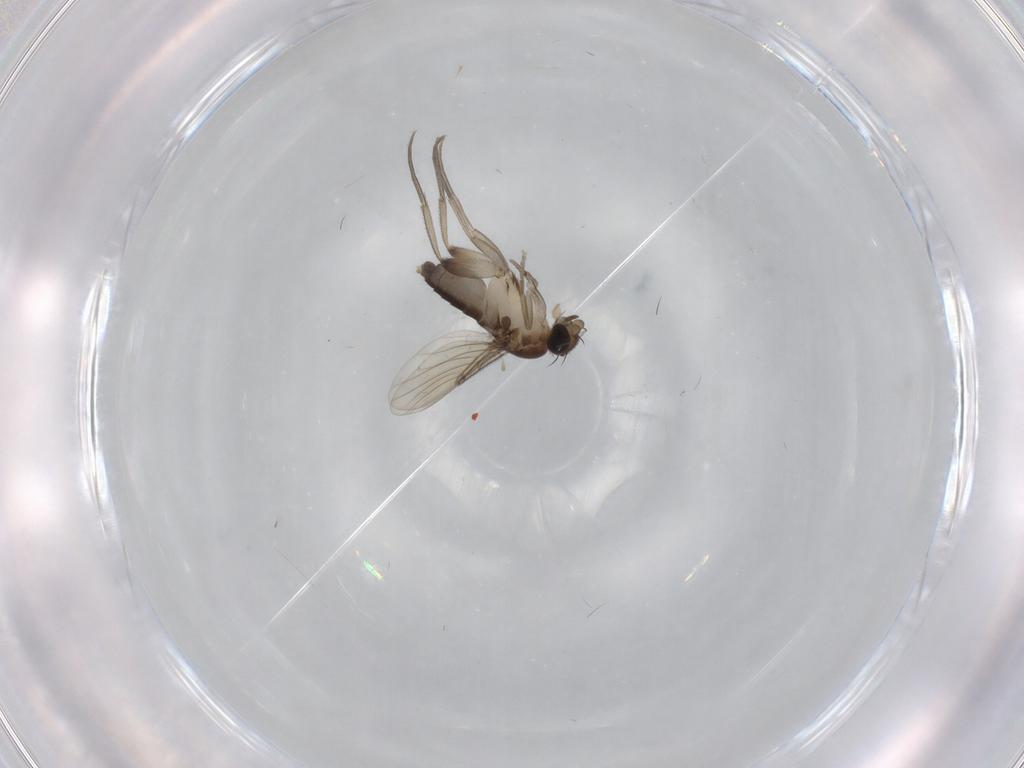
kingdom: Animalia
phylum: Arthropoda
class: Insecta
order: Diptera
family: Phoridae
